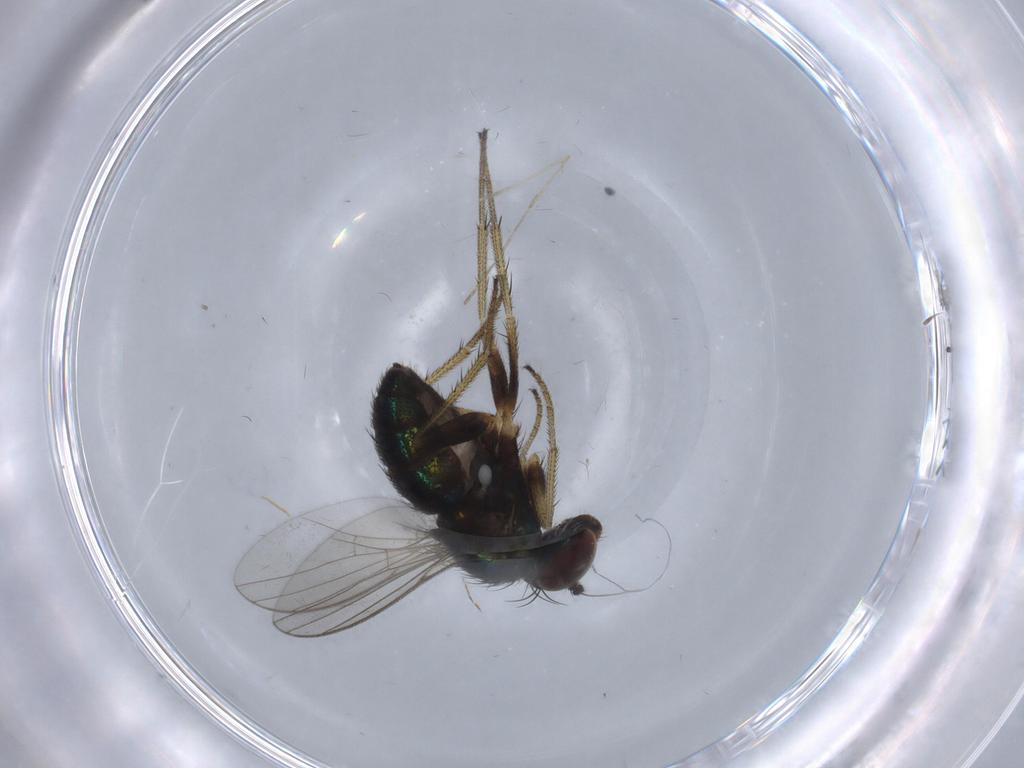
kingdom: Animalia
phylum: Arthropoda
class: Insecta
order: Diptera
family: Cecidomyiidae
